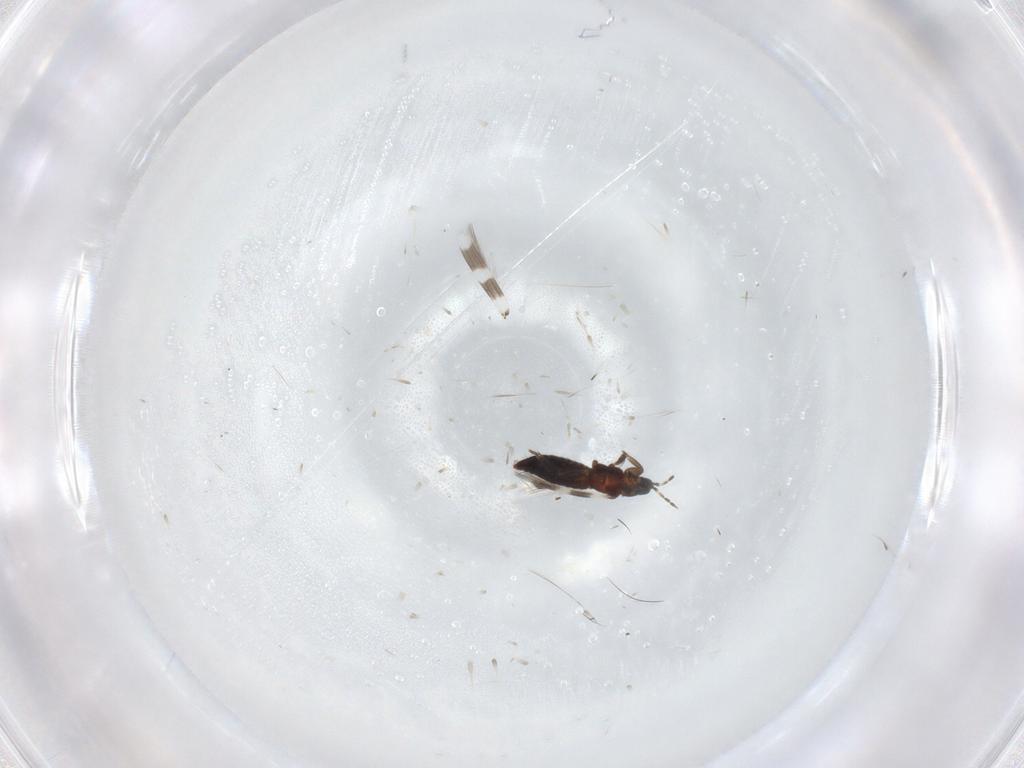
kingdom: Animalia
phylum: Arthropoda
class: Insecta
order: Thysanoptera
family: Aeolothripidae
